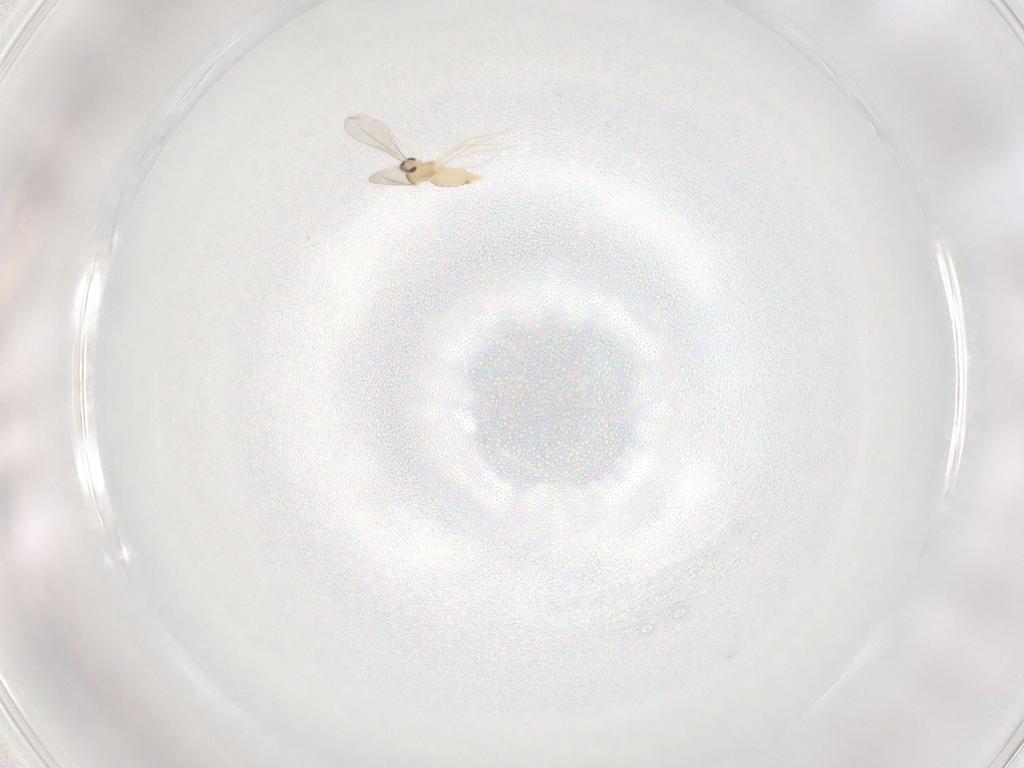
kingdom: Animalia
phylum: Arthropoda
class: Insecta
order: Diptera
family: Cecidomyiidae
